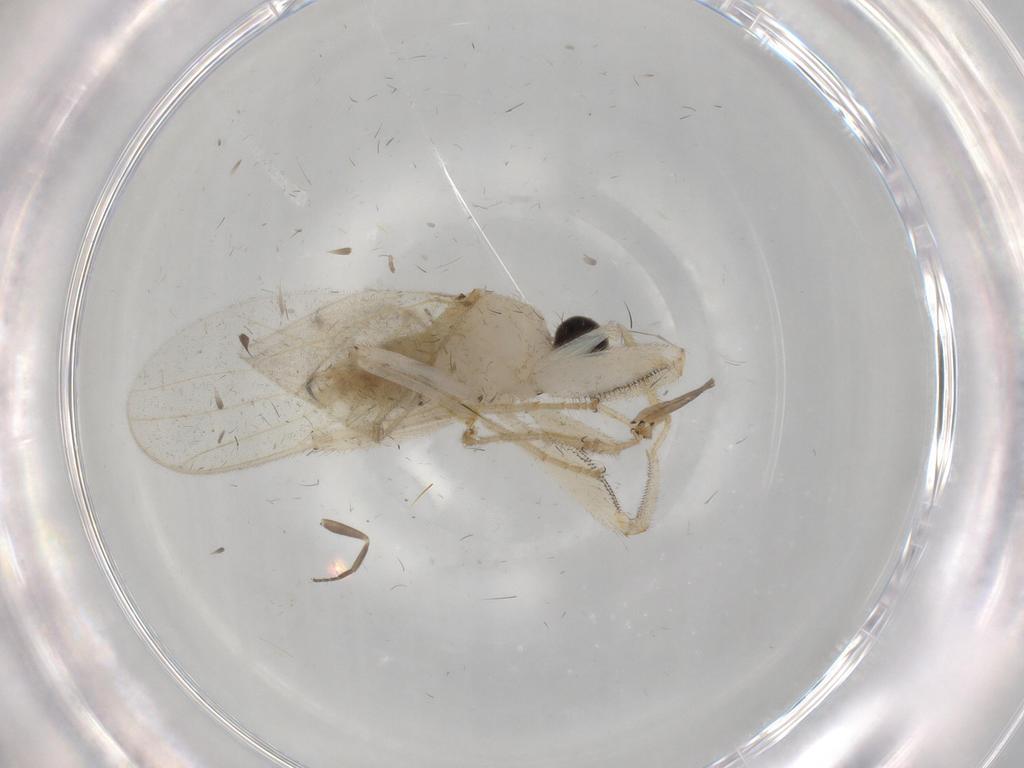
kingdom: Animalia
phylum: Arthropoda
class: Insecta
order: Diptera
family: Hybotidae
